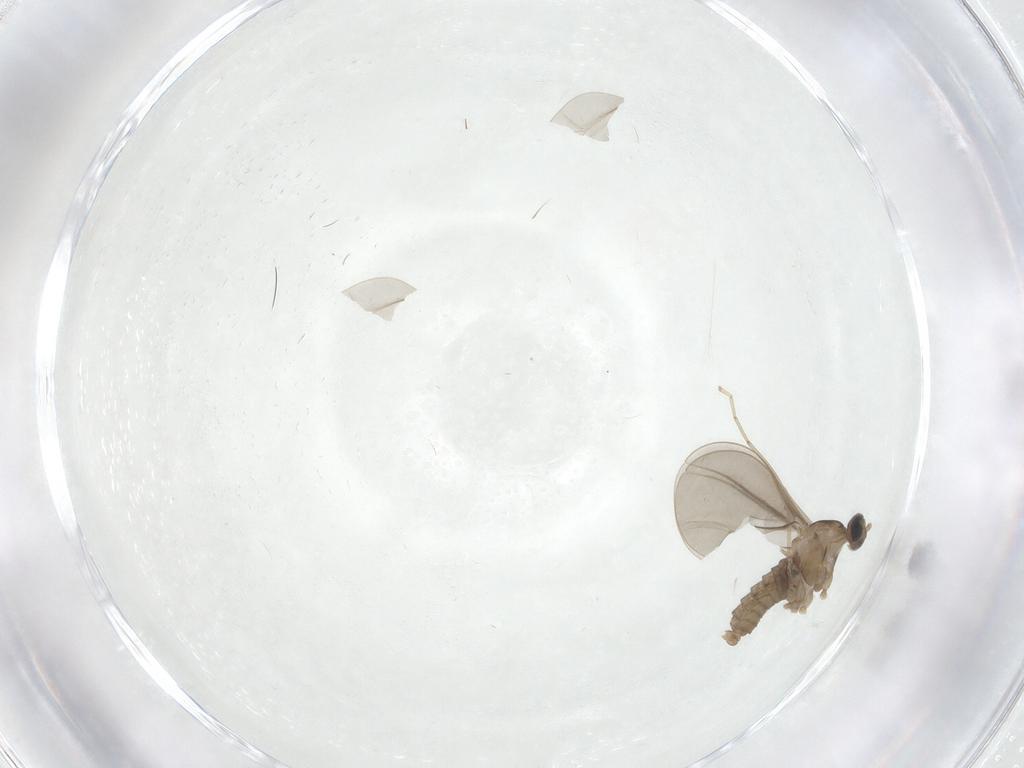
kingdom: Animalia
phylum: Arthropoda
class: Insecta
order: Diptera
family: Cecidomyiidae
